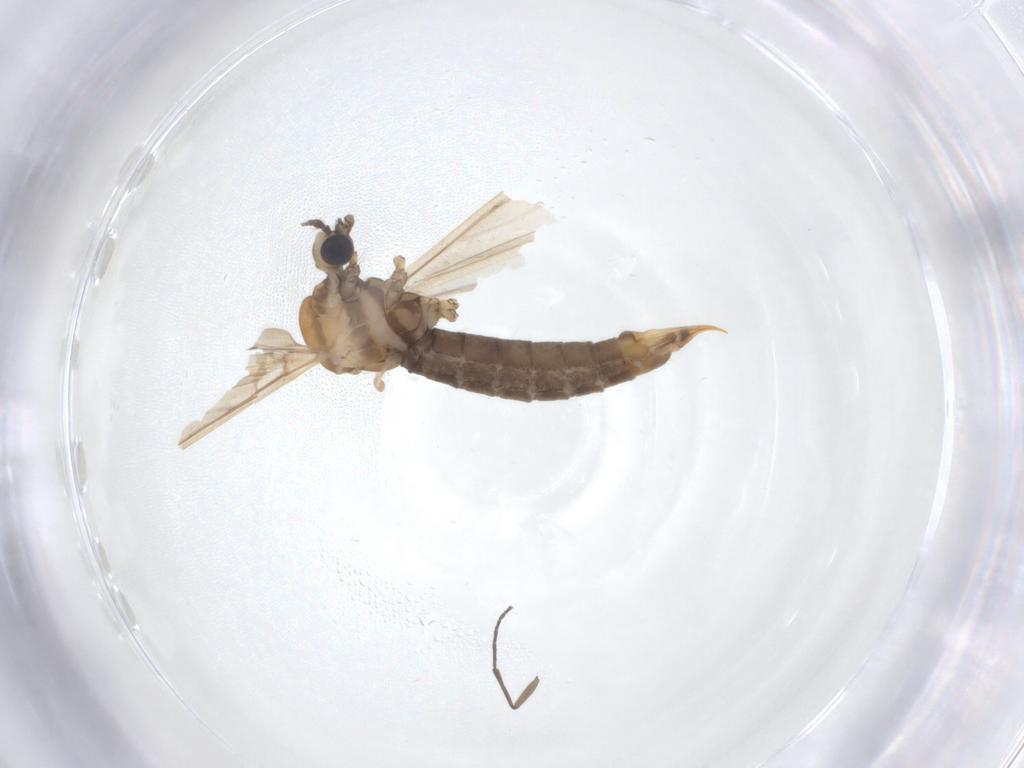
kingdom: Animalia
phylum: Arthropoda
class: Insecta
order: Diptera
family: Limoniidae
